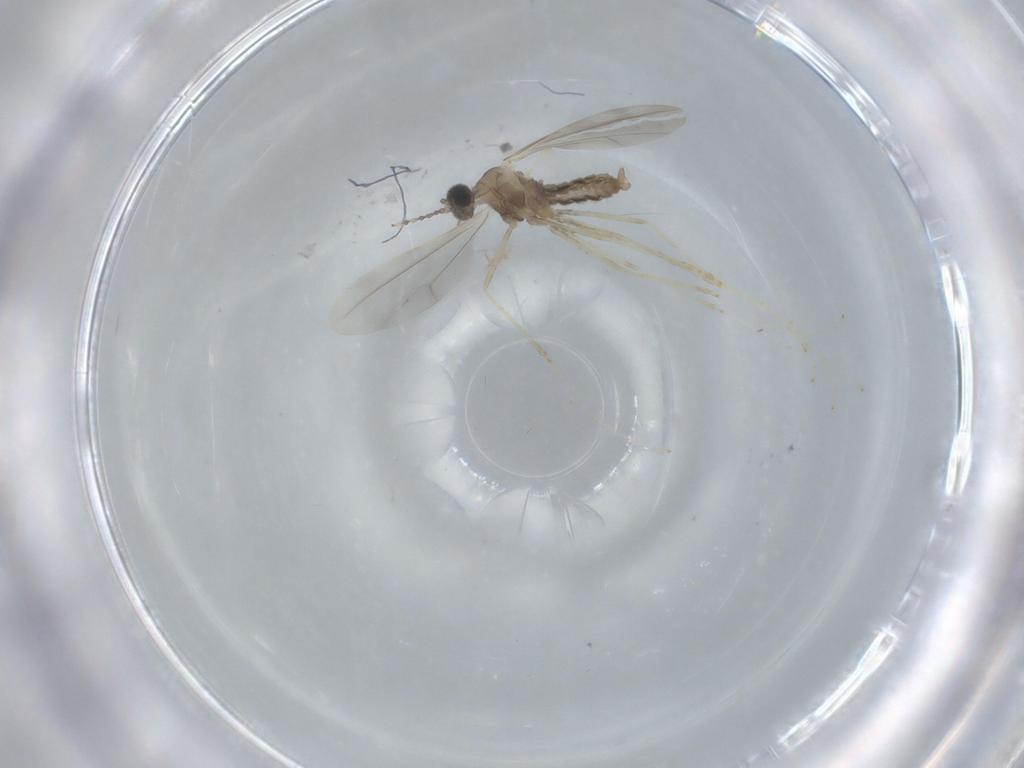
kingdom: Animalia
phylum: Arthropoda
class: Insecta
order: Diptera
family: Cecidomyiidae
